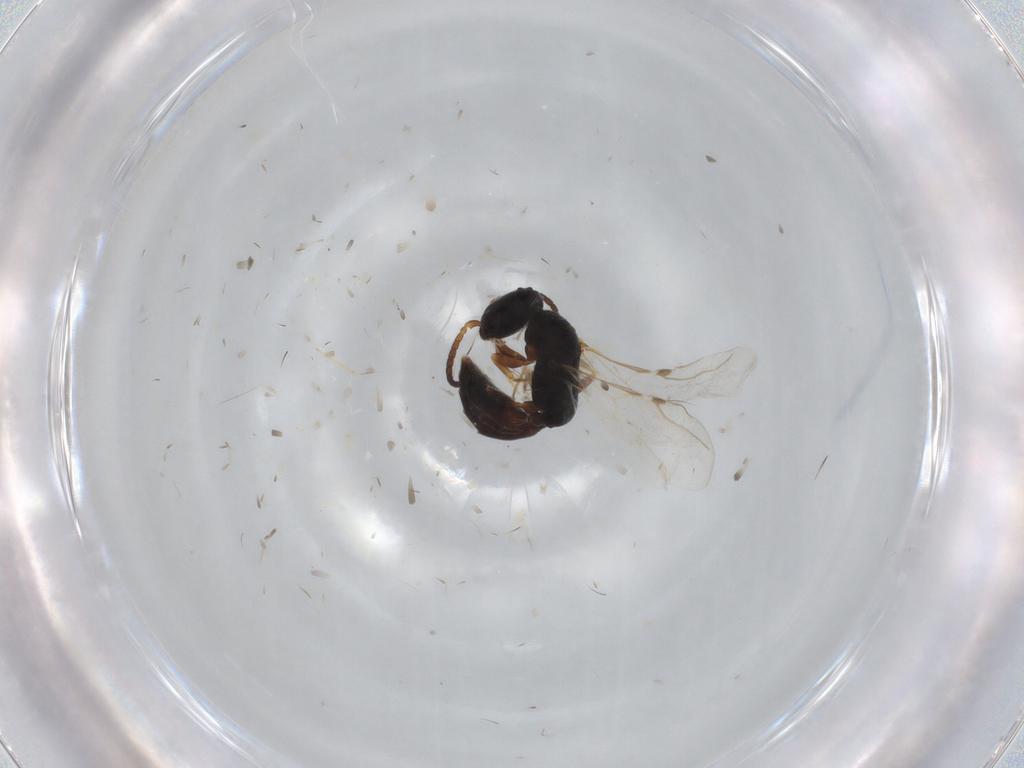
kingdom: Animalia
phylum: Arthropoda
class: Insecta
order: Hymenoptera
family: Bethylidae
